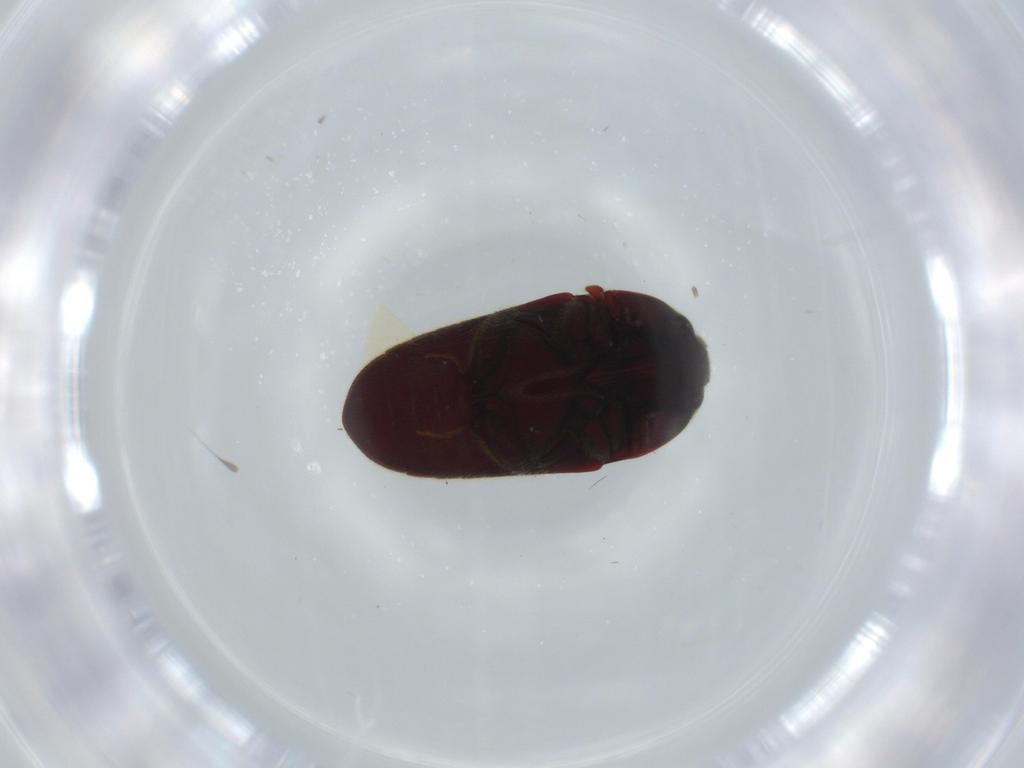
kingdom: Animalia
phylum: Arthropoda
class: Insecta
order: Coleoptera
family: Throscidae
